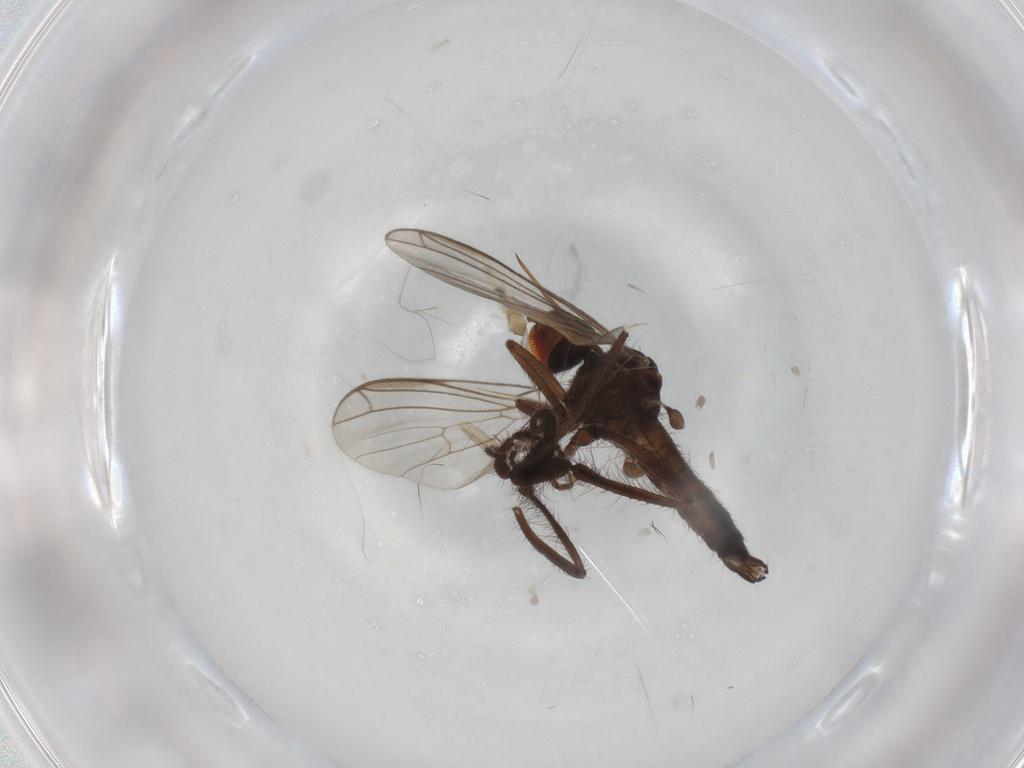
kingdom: Animalia
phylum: Arthropoda
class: Insecta
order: Diptera
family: Cecidomyiidae
